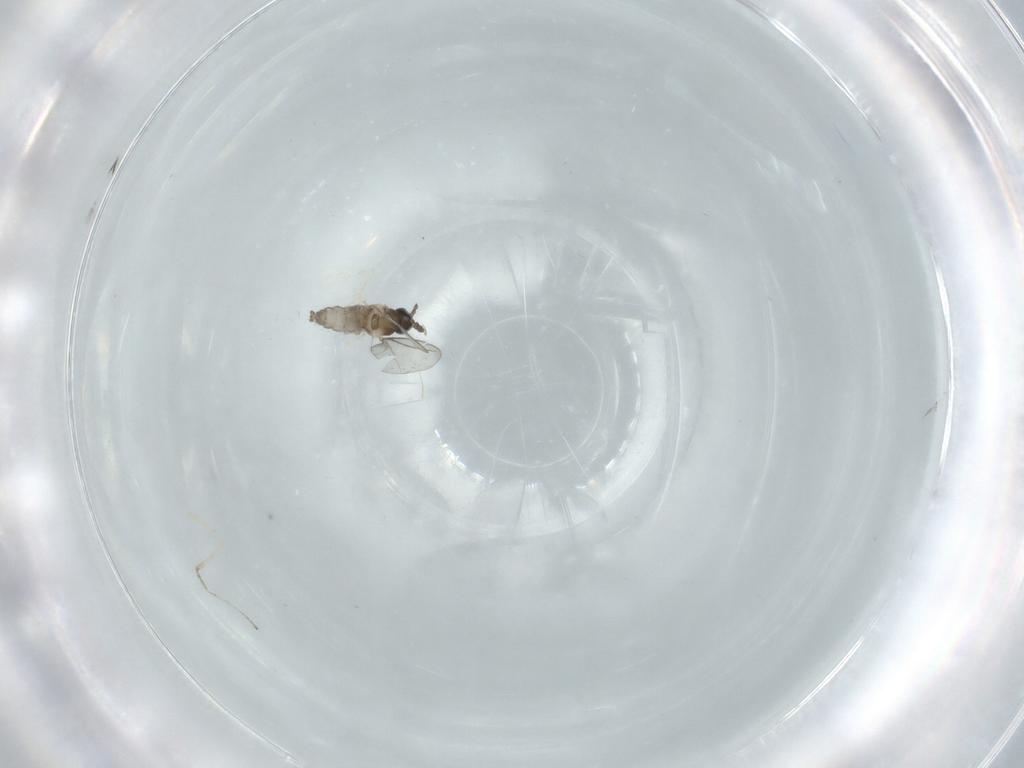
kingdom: Animalia
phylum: Arthropoda
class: Insecta
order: Diptera
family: Cecidomyiidae
